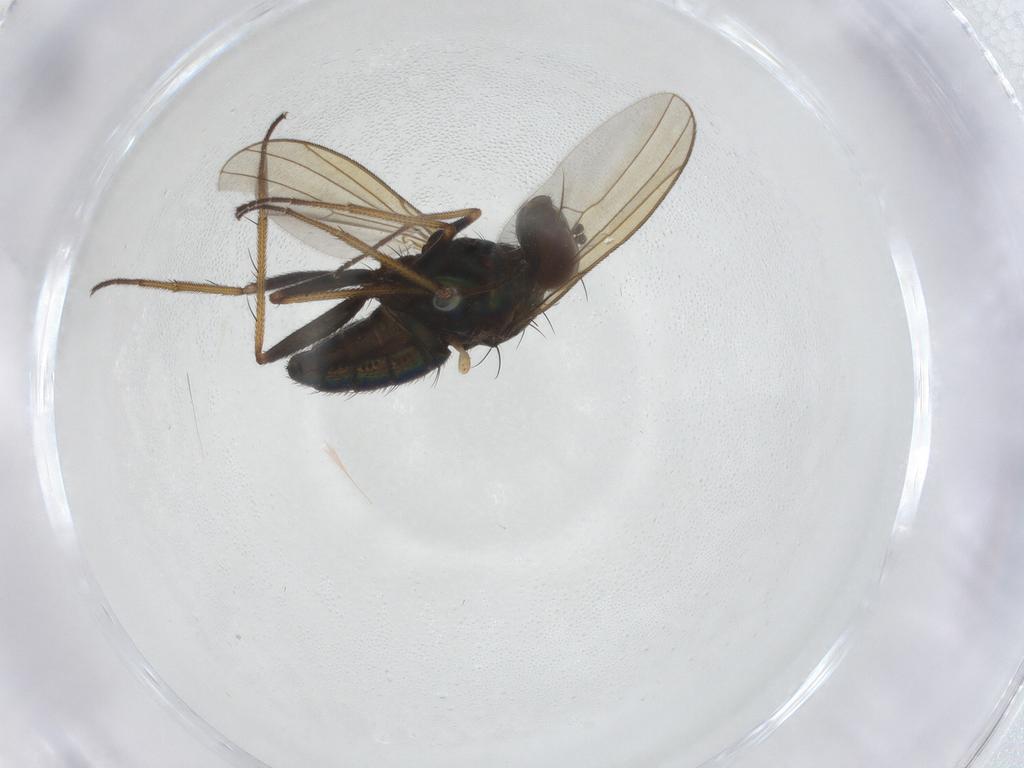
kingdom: Animalia
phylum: Arthropoda
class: Insecta
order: Diptera
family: Dolichopodidae
